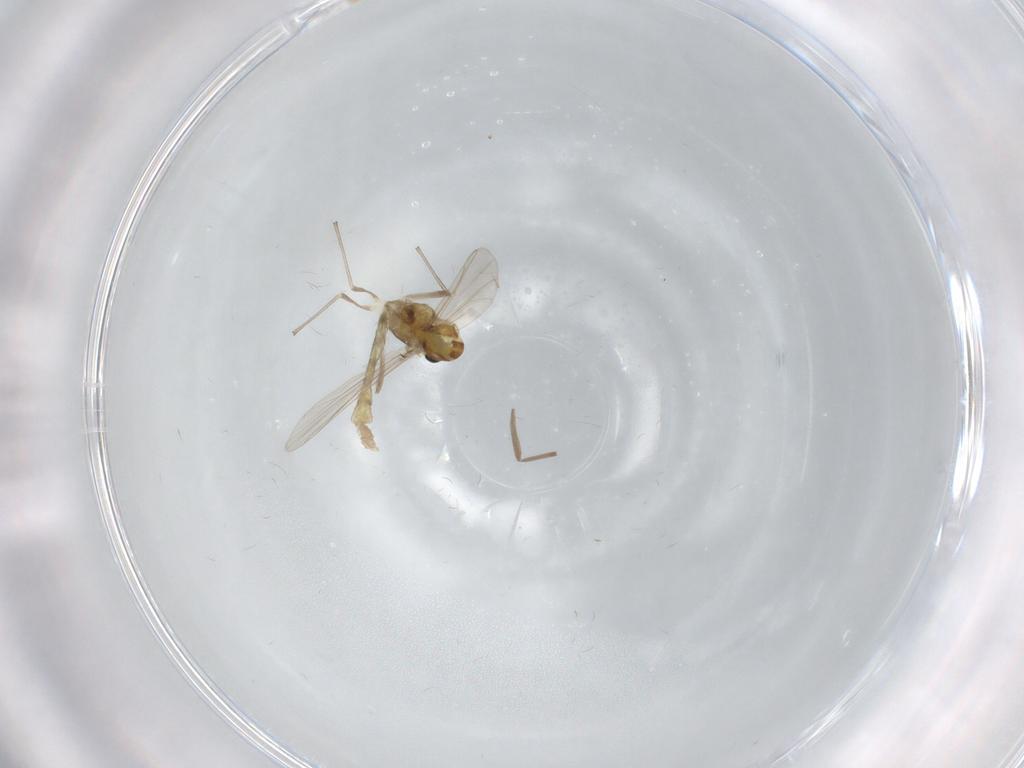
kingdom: Animalia
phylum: Arthropoda
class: Insecta
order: Diptera
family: Chironomidae
